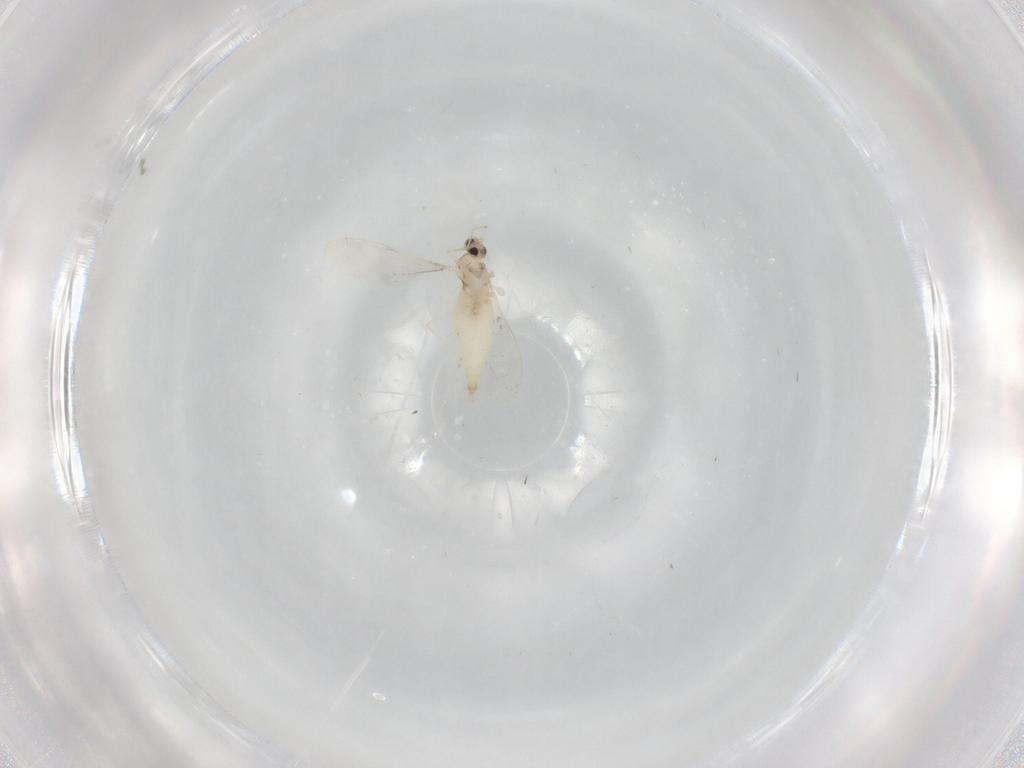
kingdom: Animalia
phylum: Arthropoda
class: Insecta
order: Diptera
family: Cecidomyiidae
